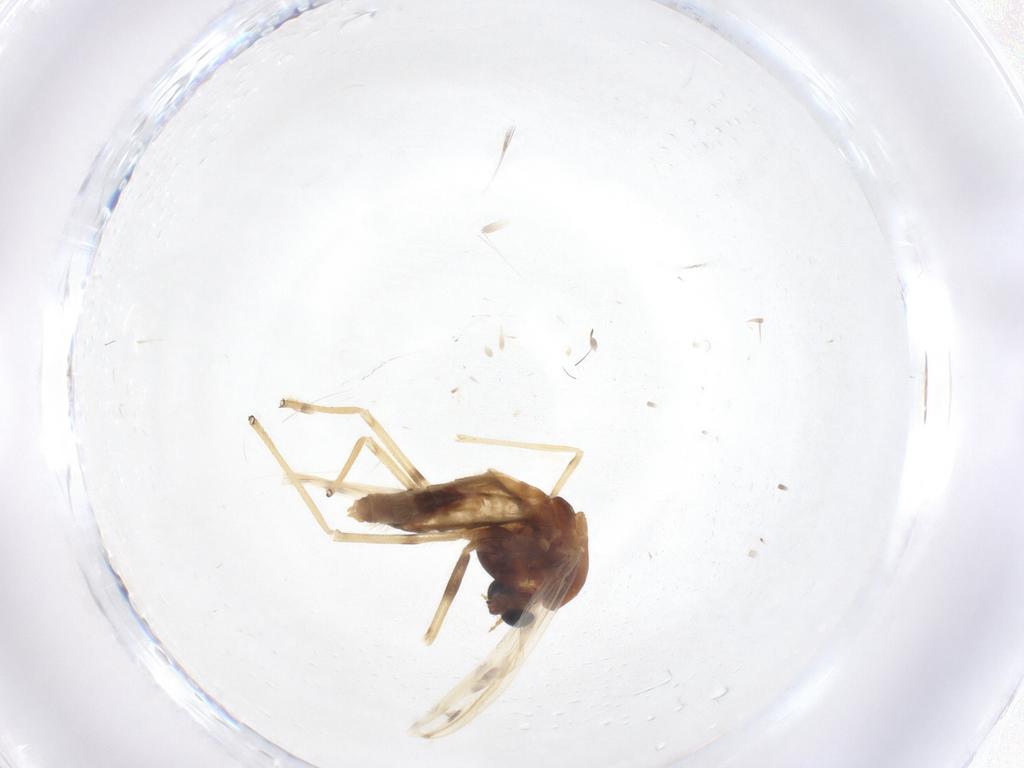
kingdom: Animalia
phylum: Arthropoda
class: Insecta
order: Diptera
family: Chironomidae
